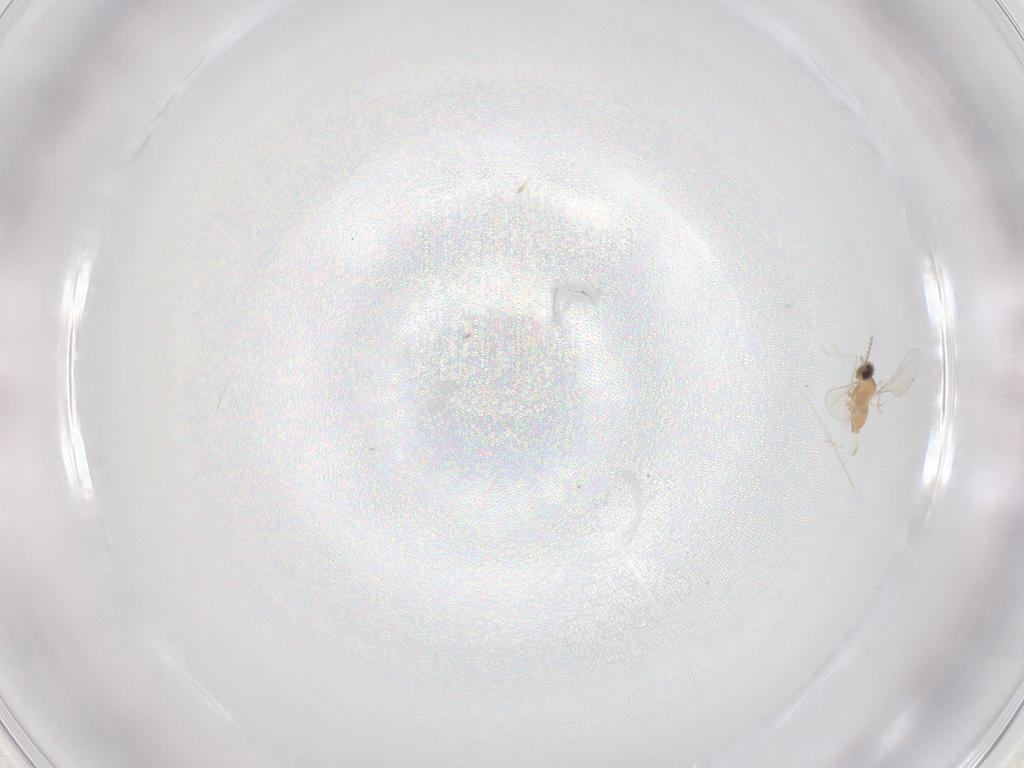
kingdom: Animalia
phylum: Arthropoda
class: Insecta
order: Diptera
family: Cecidomyiidae
